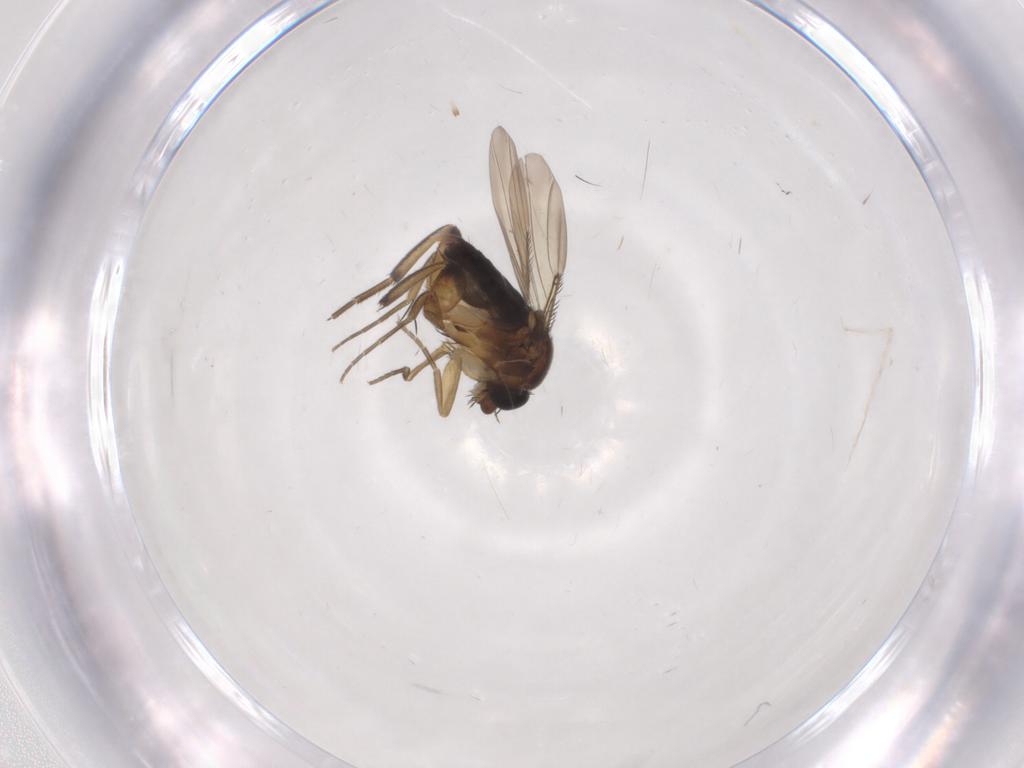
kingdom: Animalia
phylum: Arthropoda
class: Insecta
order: Diptera
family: Phoridae
